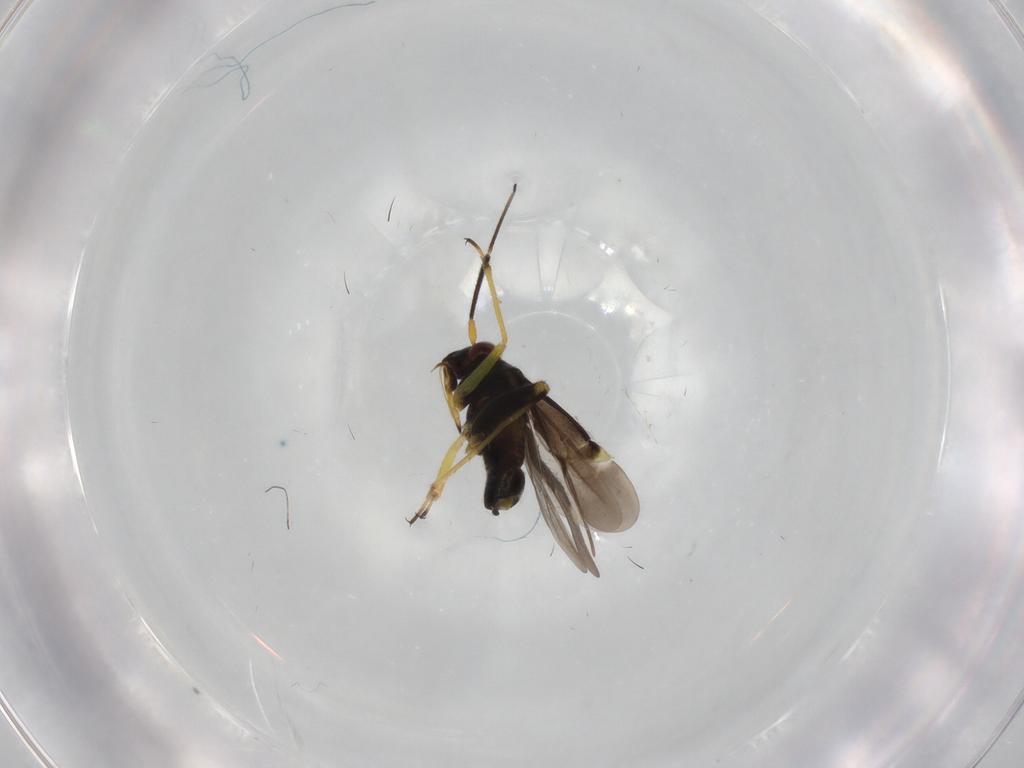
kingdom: Animalia
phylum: Arthropoda
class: Insecta
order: Hemiptera
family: Miridae
